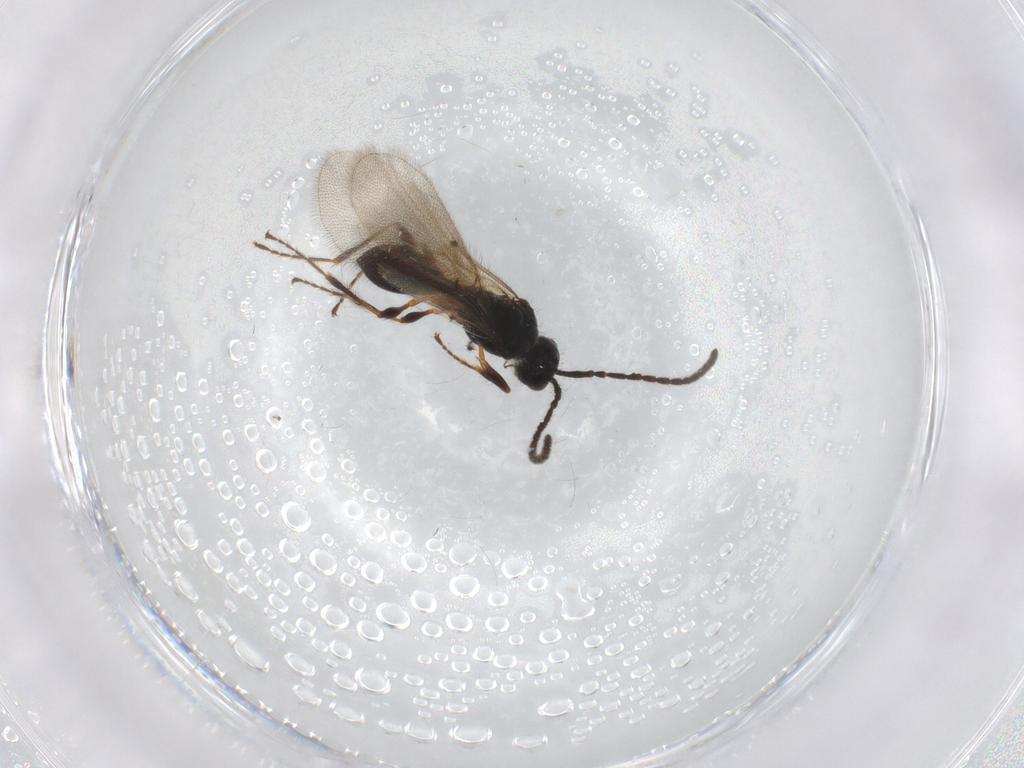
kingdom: Animalia
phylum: Arthropoda
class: Insecta
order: Hymenoptera
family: Diapriidae
